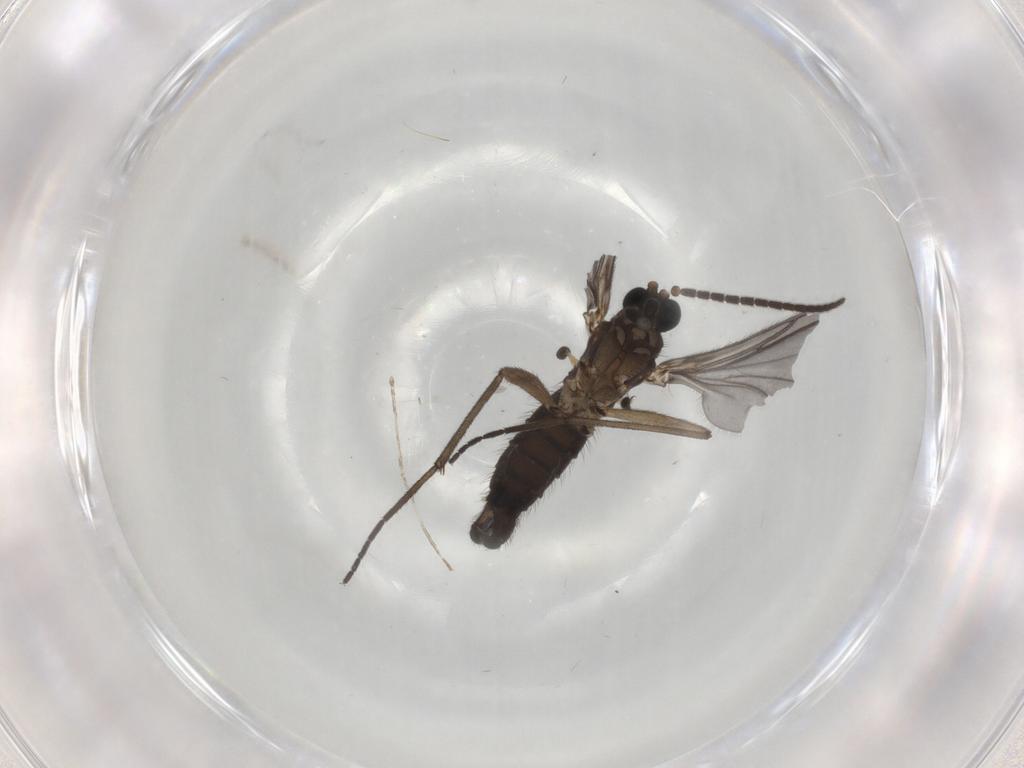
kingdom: Animalia
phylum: Arthropoda
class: Insecta
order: Diptera
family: Sciaridae
